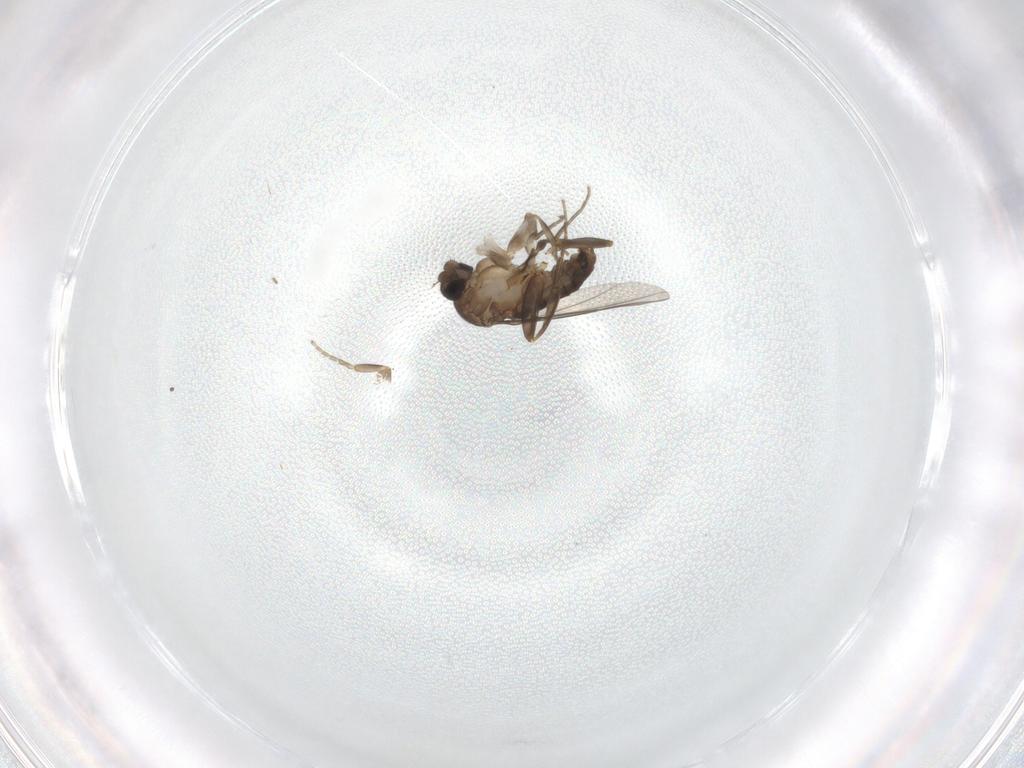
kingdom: Animalia
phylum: Arthropoda
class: Insecta
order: Diptera
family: Phoridae
